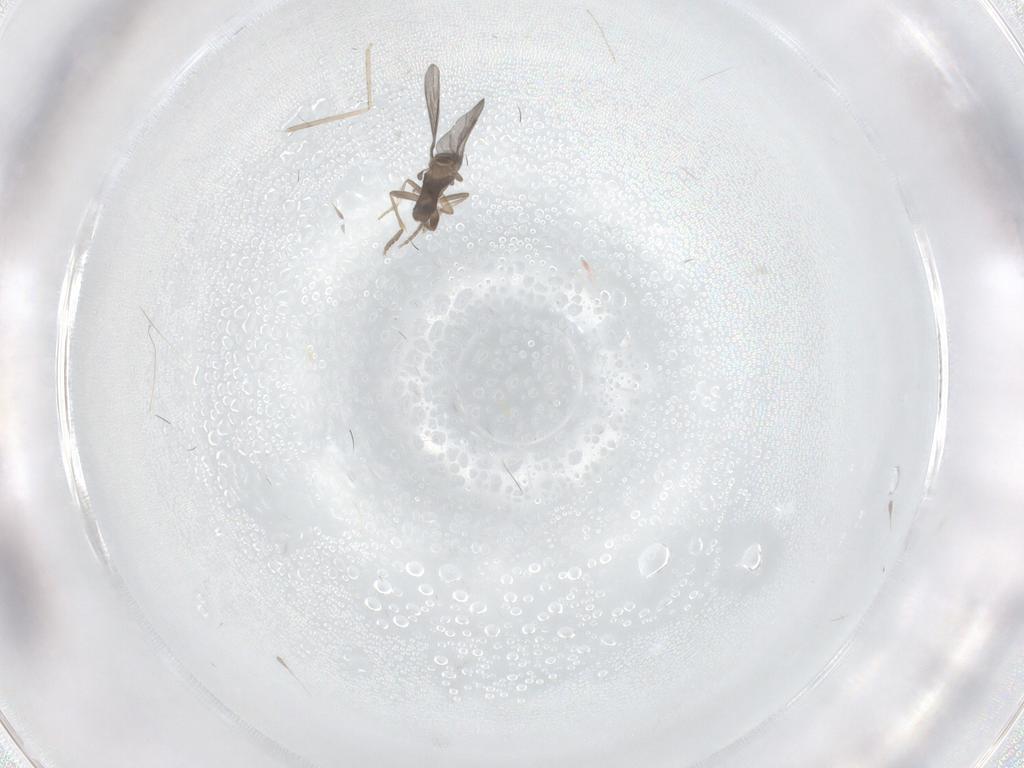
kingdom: Animalia
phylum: Arthropoda
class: Insecta
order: Diptera
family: Cecidomyiidae
